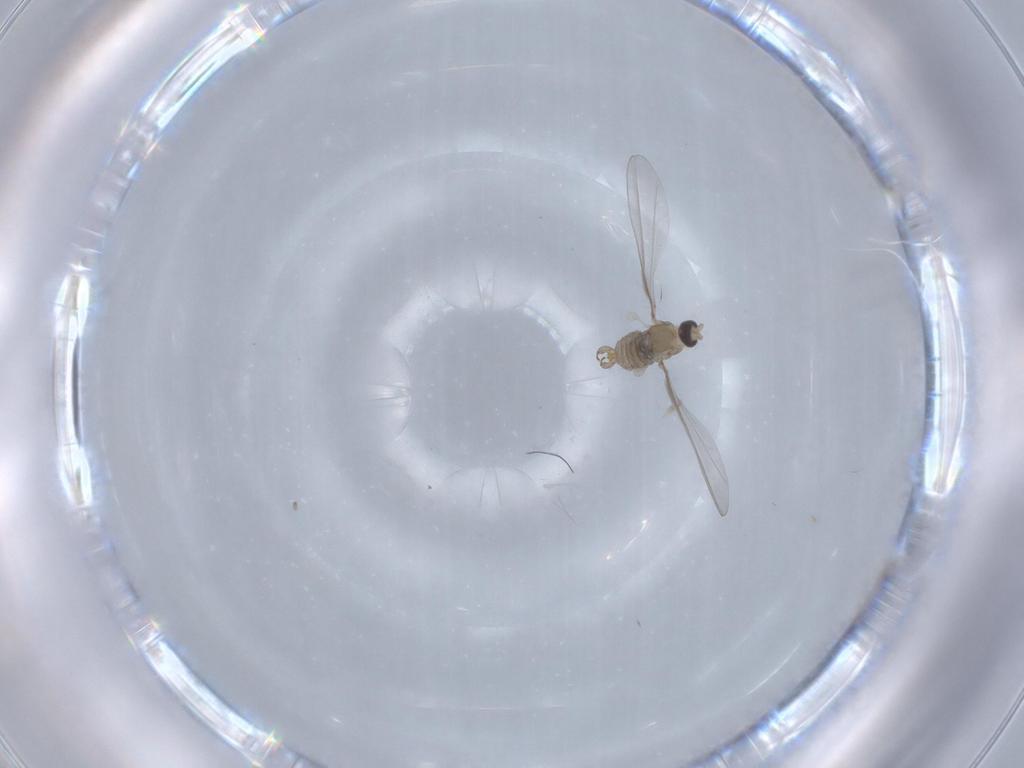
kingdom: Animalia
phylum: Arthropoda
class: Insecta
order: Diptera
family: Cecidomyiidae
